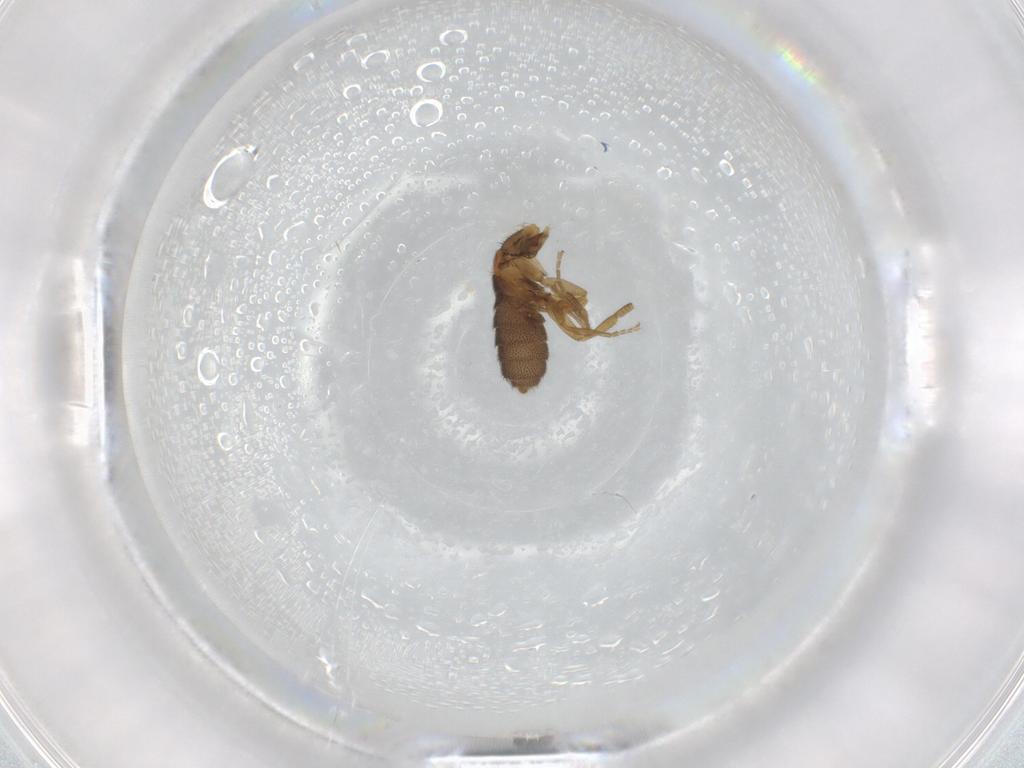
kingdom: Animalia
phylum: Arthropoda
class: Insecta
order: Diptera
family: Phoridae
